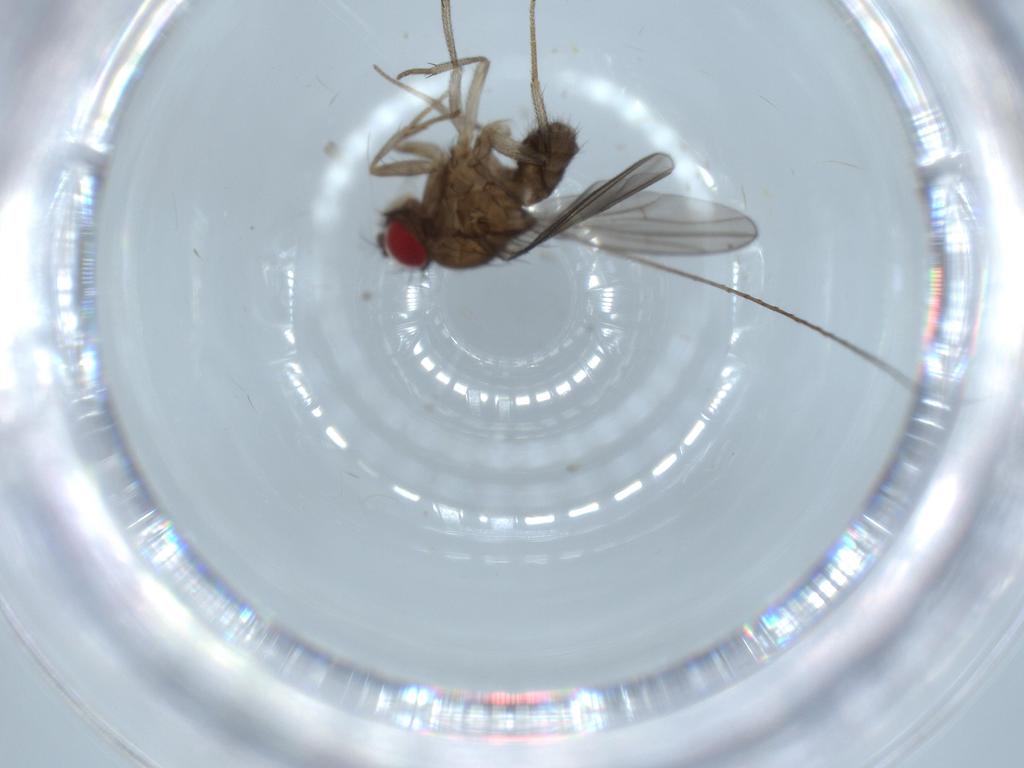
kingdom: Animalia
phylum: Arthropoda
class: Insecta
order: Diptera
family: Drosophilidae
